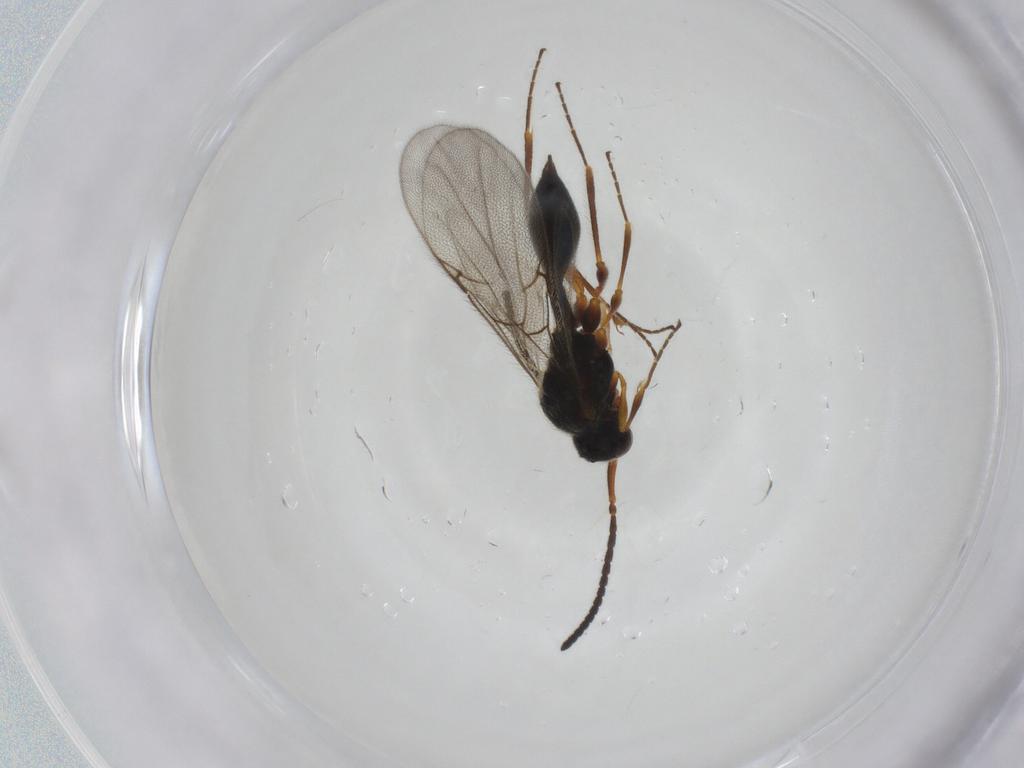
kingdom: Animalia
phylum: Arthropoda
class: Insecta
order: Hymenoptera
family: Diapriidae
